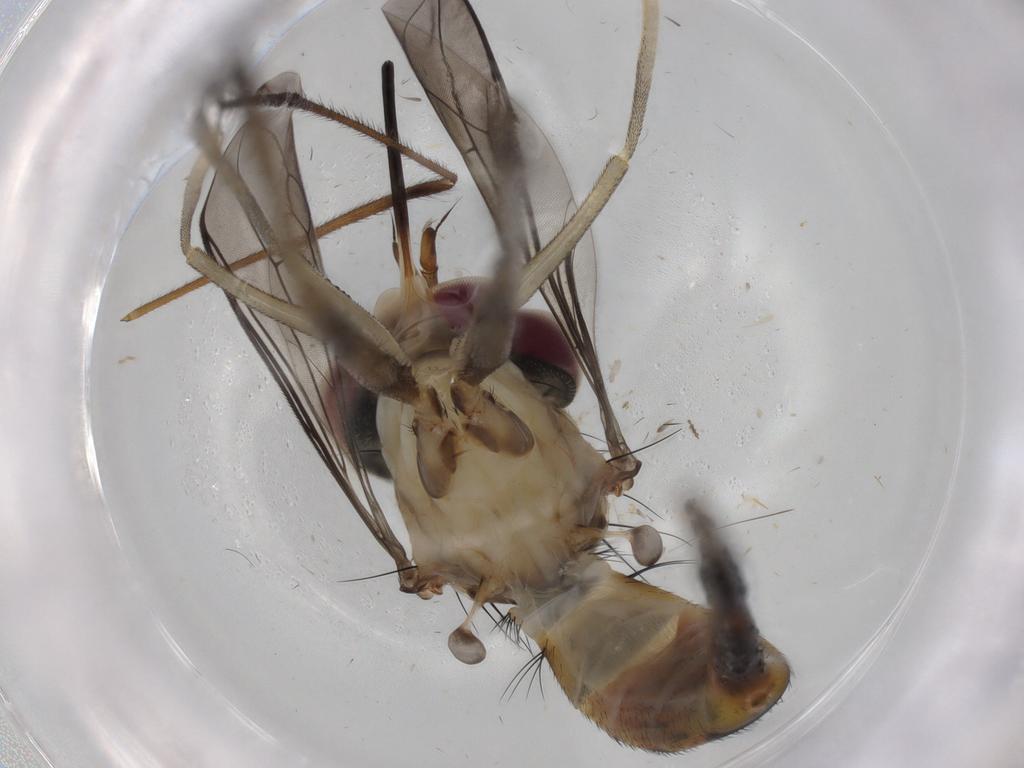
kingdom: Animalia
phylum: Arthropoda
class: Insecta
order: Diptera
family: Conopidae
